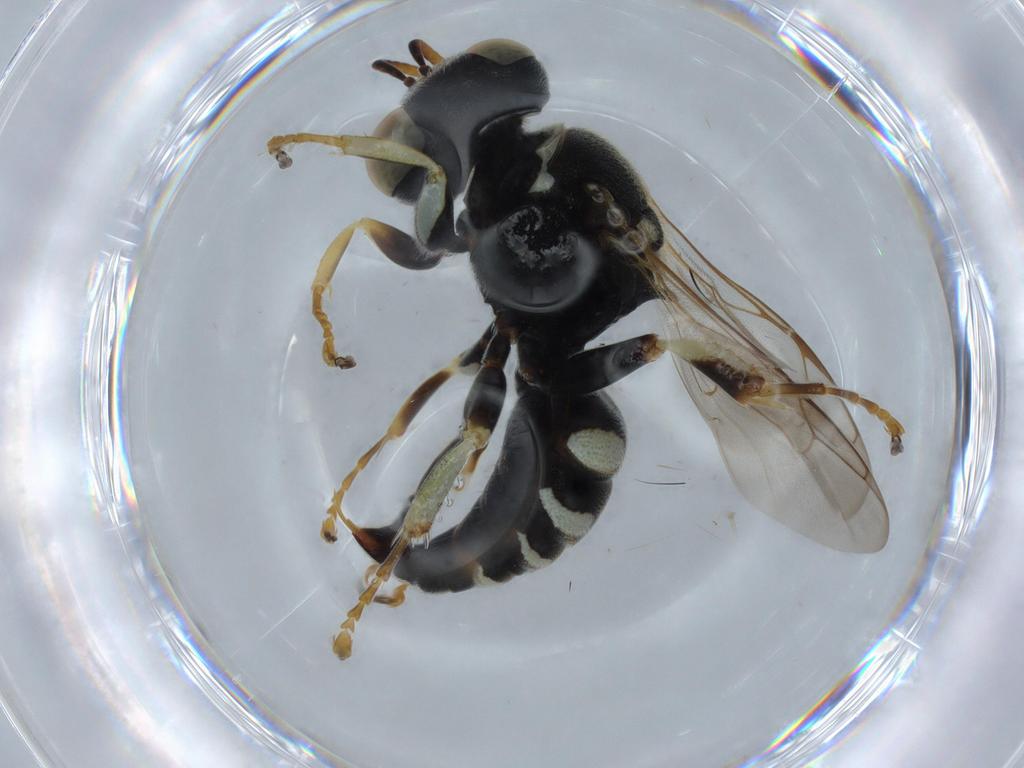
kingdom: Animalia
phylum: Arthropoda
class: Insecta
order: Hymenoptera
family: Crabronidae
